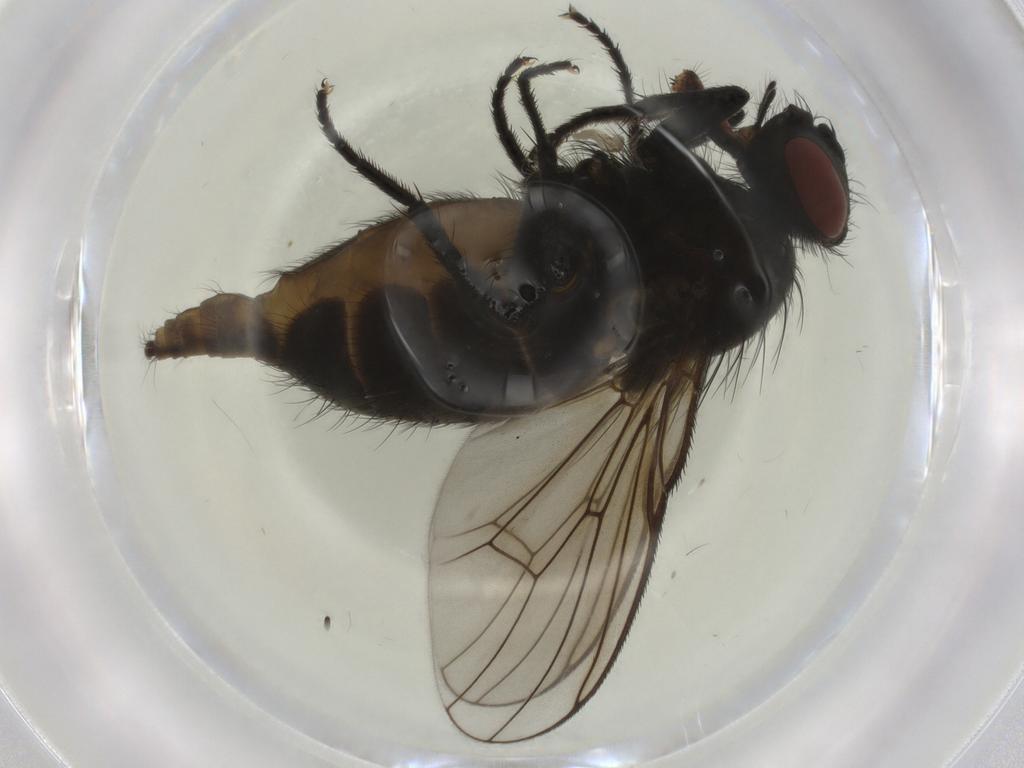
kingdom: Animalia
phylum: Arthropoda
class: Insecta
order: Diptera
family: Muscidae
